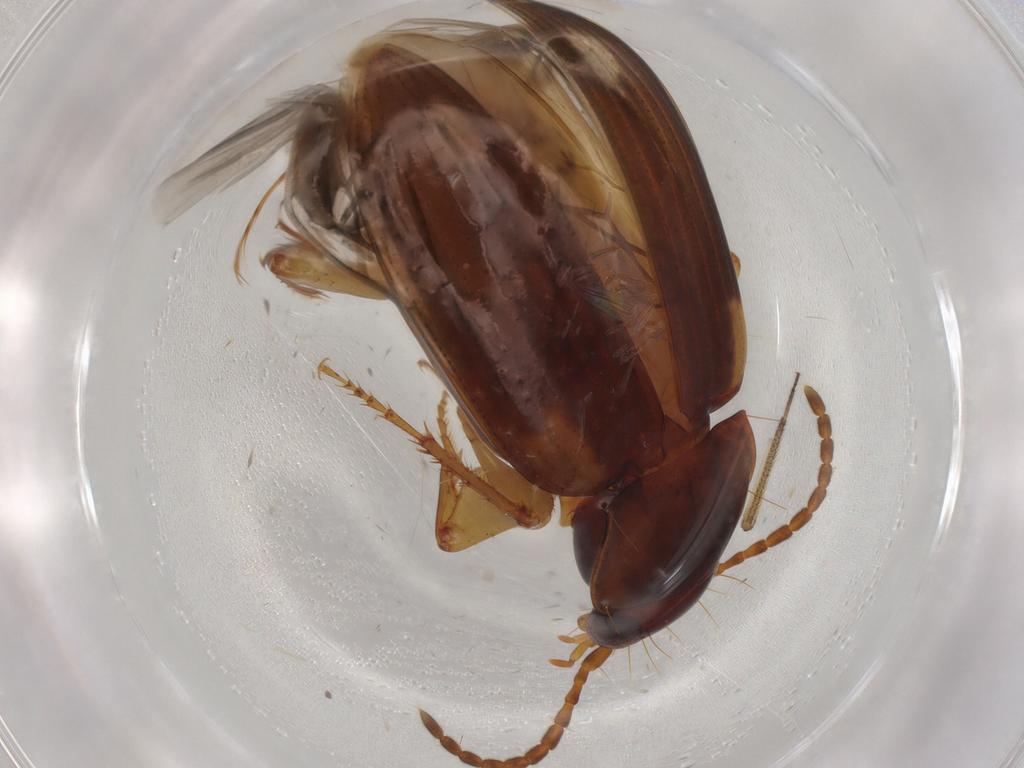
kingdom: Animalia
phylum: Arthropoda
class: Insecta
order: Coleoptera
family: Carabidae
